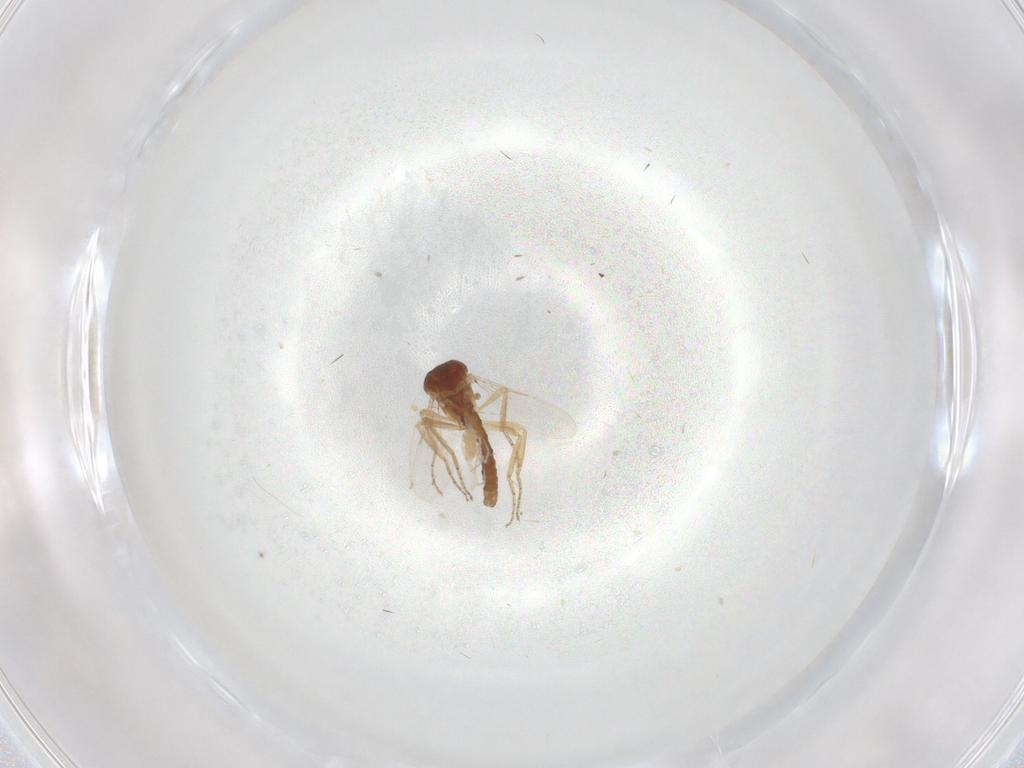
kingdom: Animalia
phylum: Arthropoda
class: Insecta
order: Diptera
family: Ceratopogonidae
